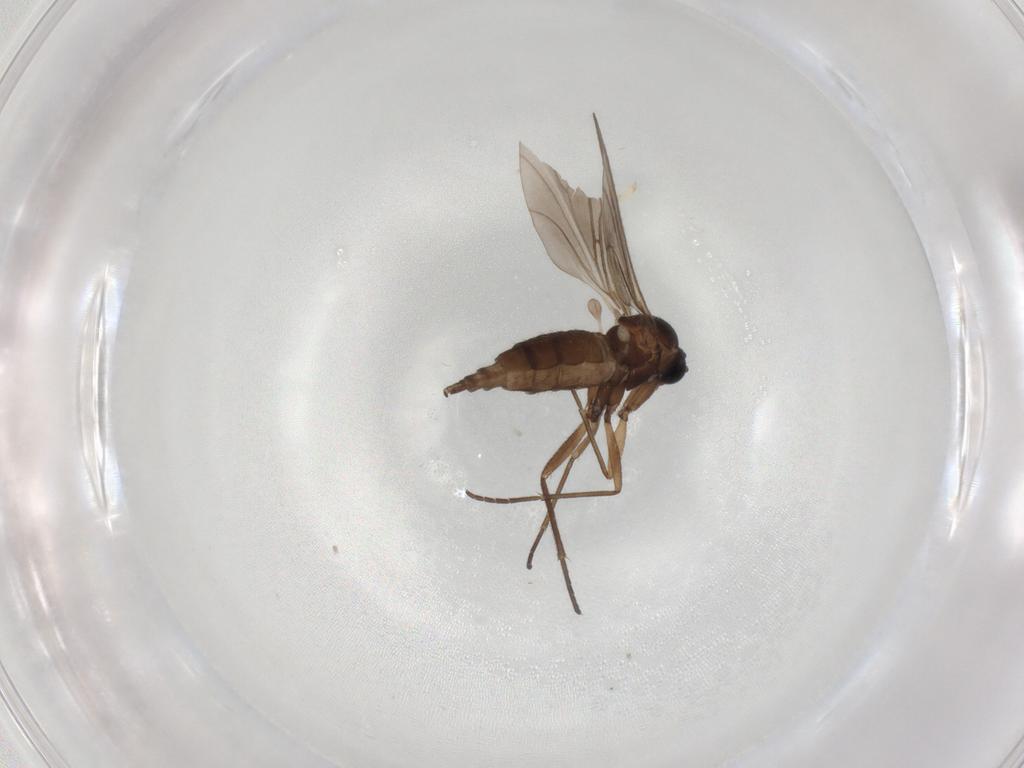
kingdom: Animalia
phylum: Arthropoda
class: Insecta
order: Diptera
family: Sciaridae
